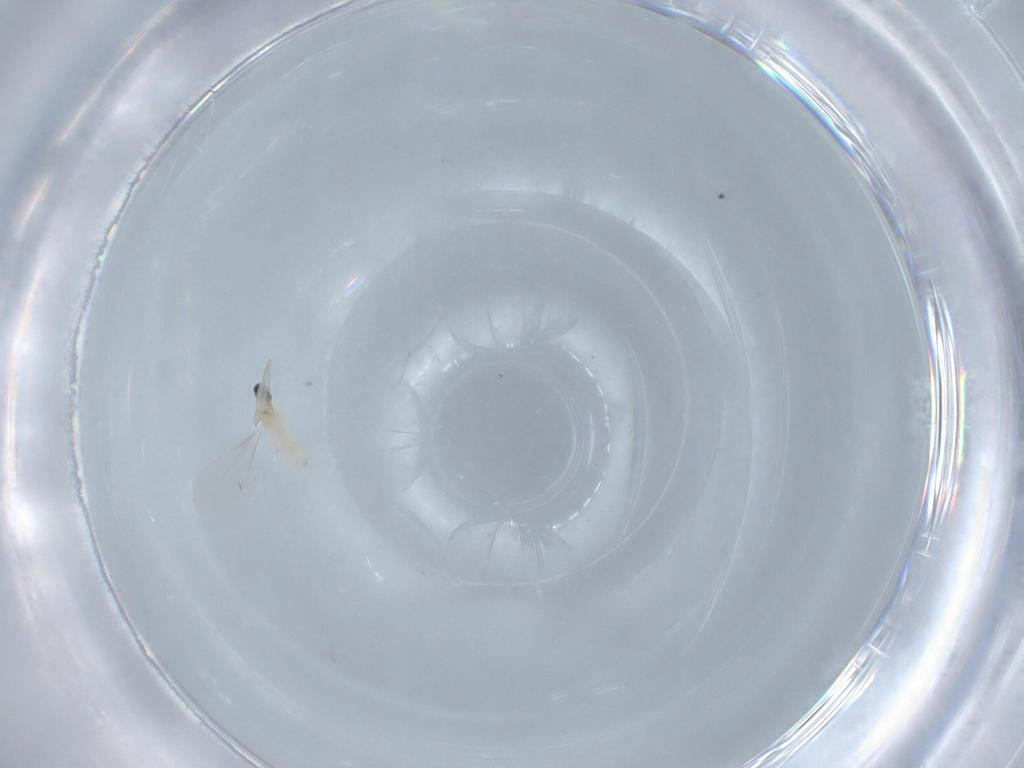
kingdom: Animalia
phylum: Arthropoda
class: Insecta
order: Diptera
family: Cecidomyiidae
